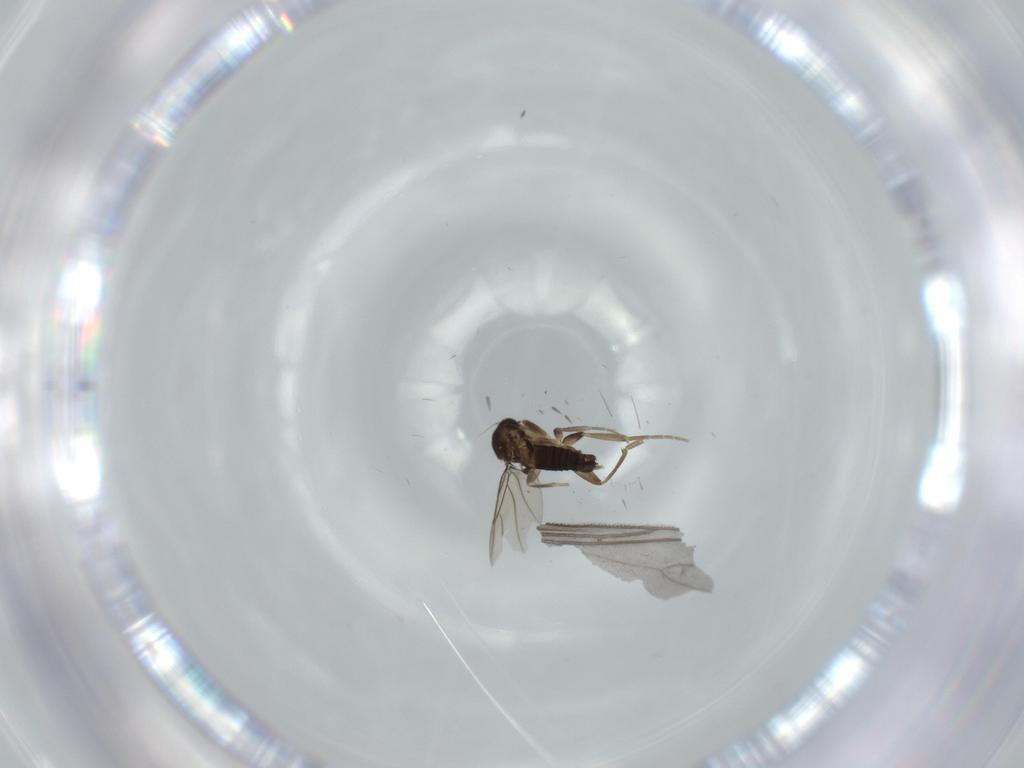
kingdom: Animalia
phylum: Arthropoda
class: Insecta
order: Diptera
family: Phoridae
